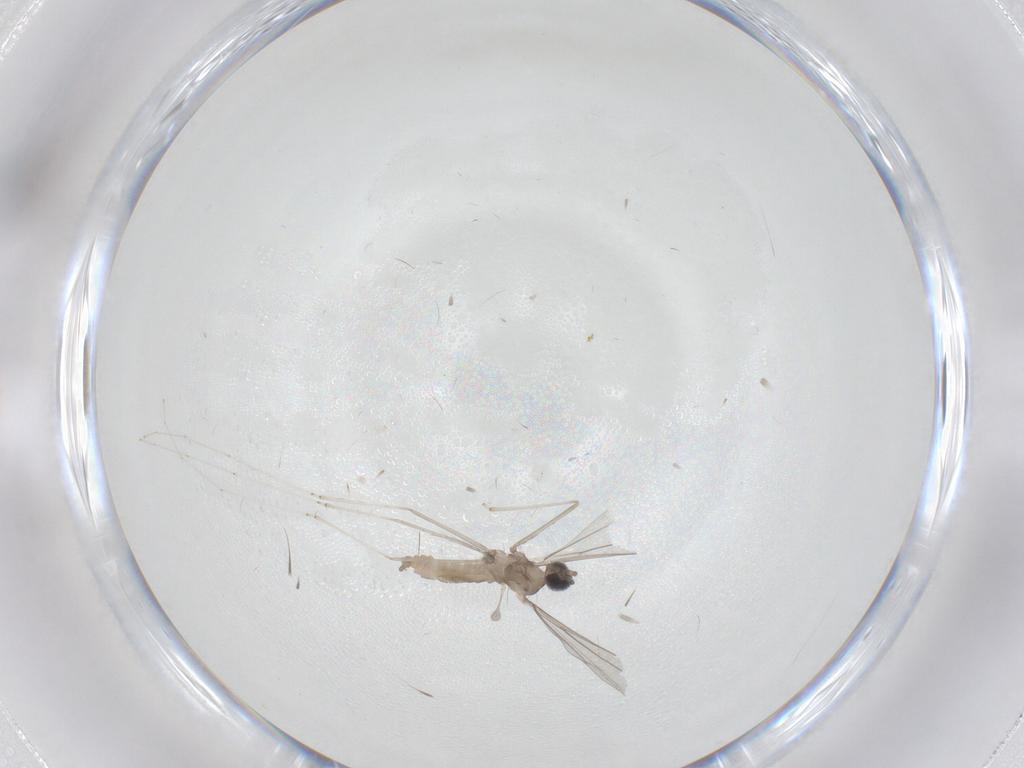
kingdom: Animalia
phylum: Arthropoda
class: Insecta
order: Diptera
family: Cecidomyiidae
